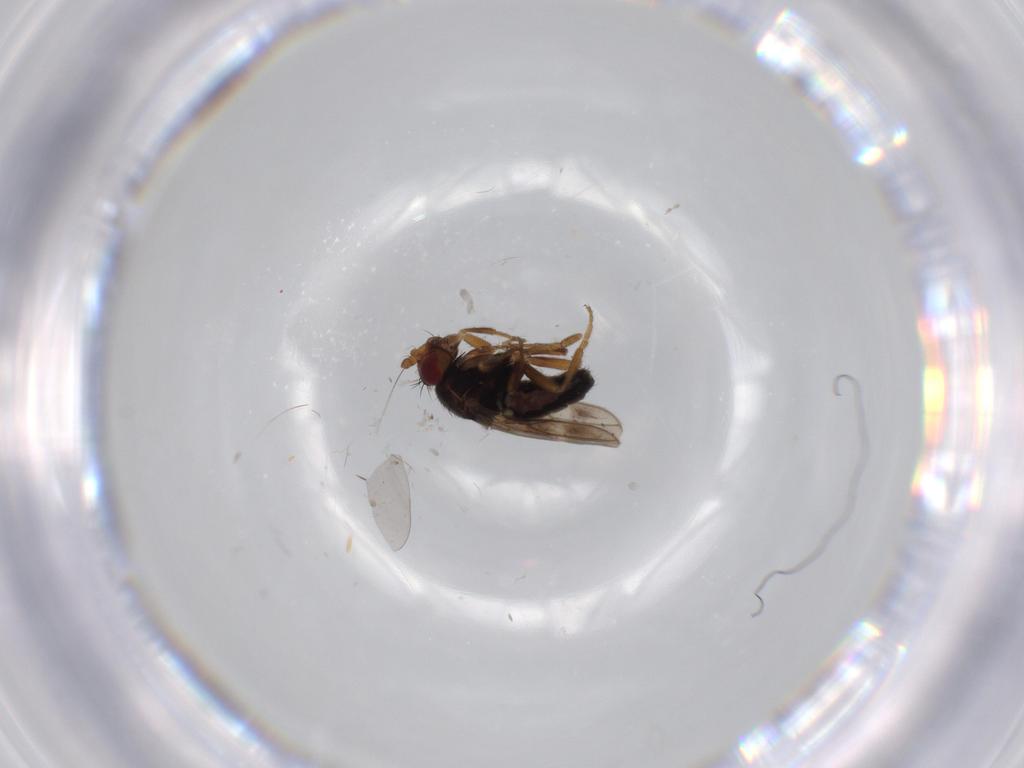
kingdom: Animalia
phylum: Arthropoda
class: Insecta
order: Diptera
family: Sphaeroceridae
